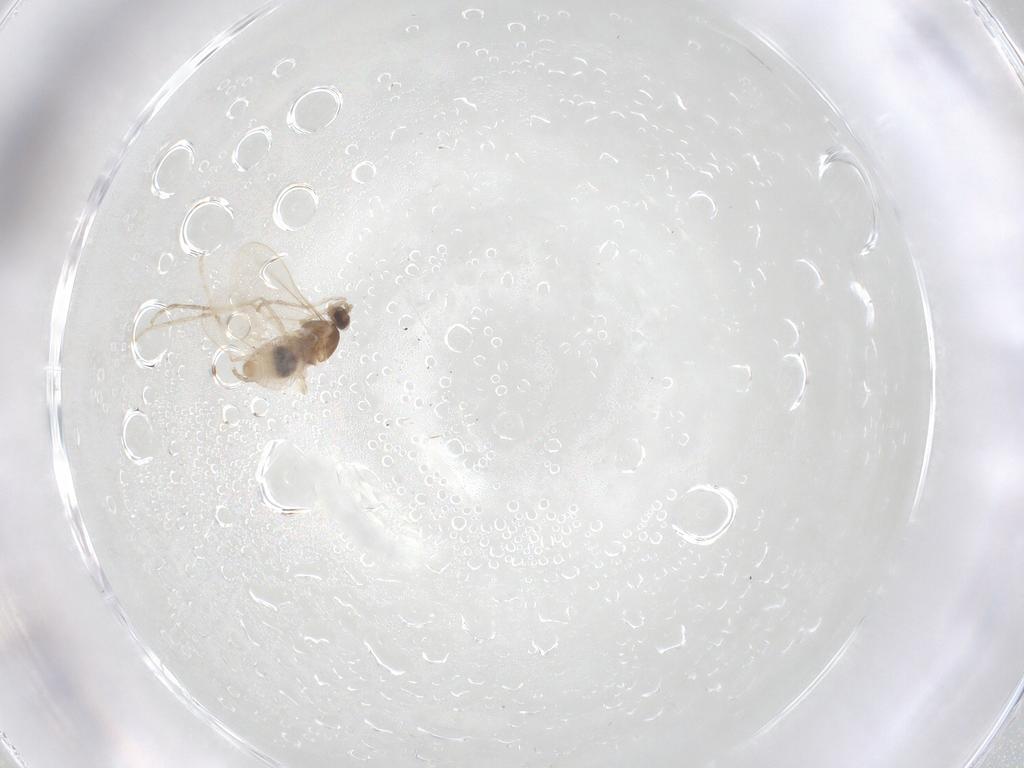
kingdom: Animalia
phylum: Arthropoda
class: Insecta
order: Diptera
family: Cecidomyiidae
